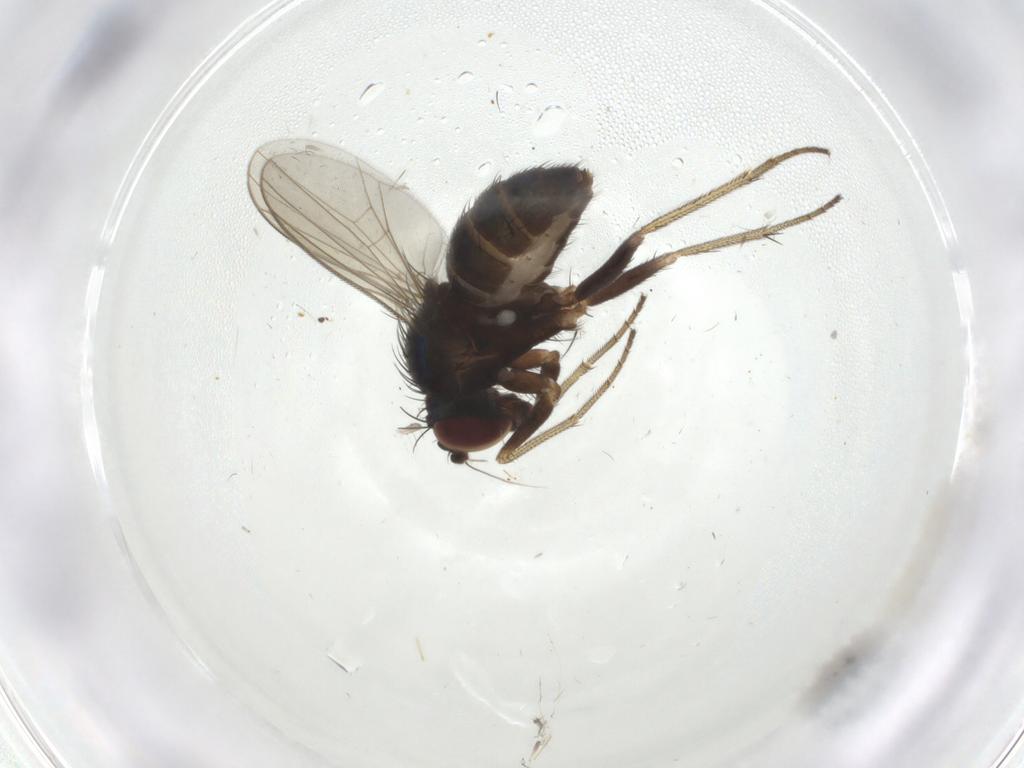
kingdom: Animalia
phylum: Arthropoda
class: Insecta
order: Diptera
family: Dolichopodidae
